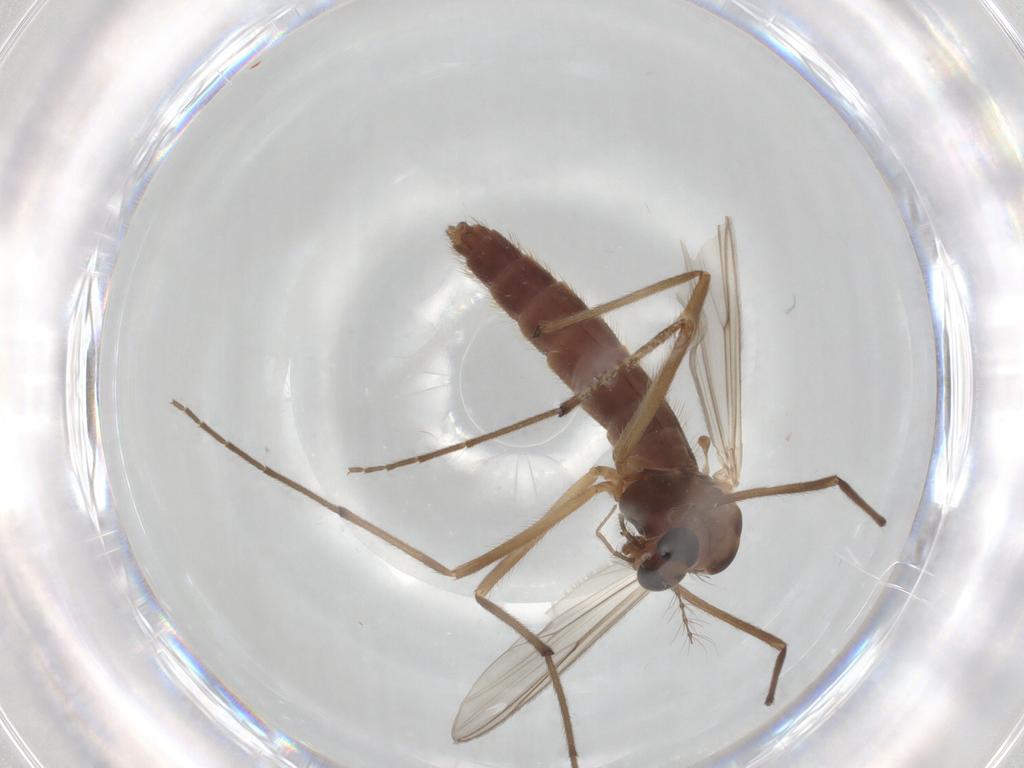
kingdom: Animalia
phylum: Arthropoda
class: Insecta
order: Diptera
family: Chironomidae
